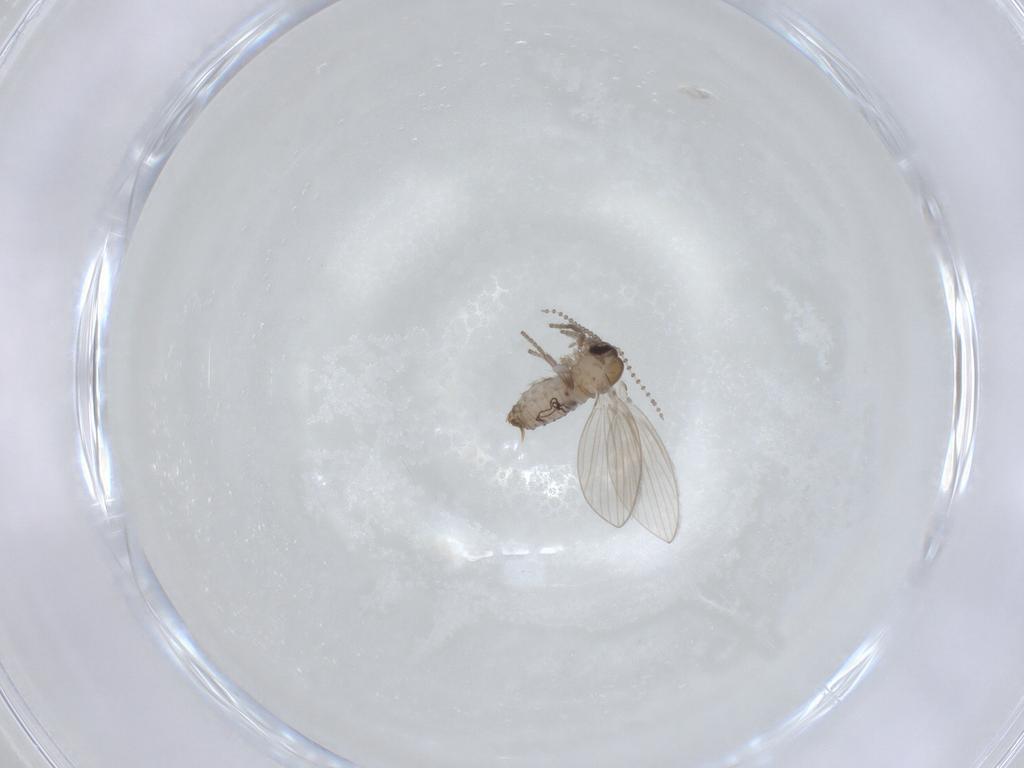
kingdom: Animalia
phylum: Arthropoda
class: Insecta
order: Diptera
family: Psychodidae
